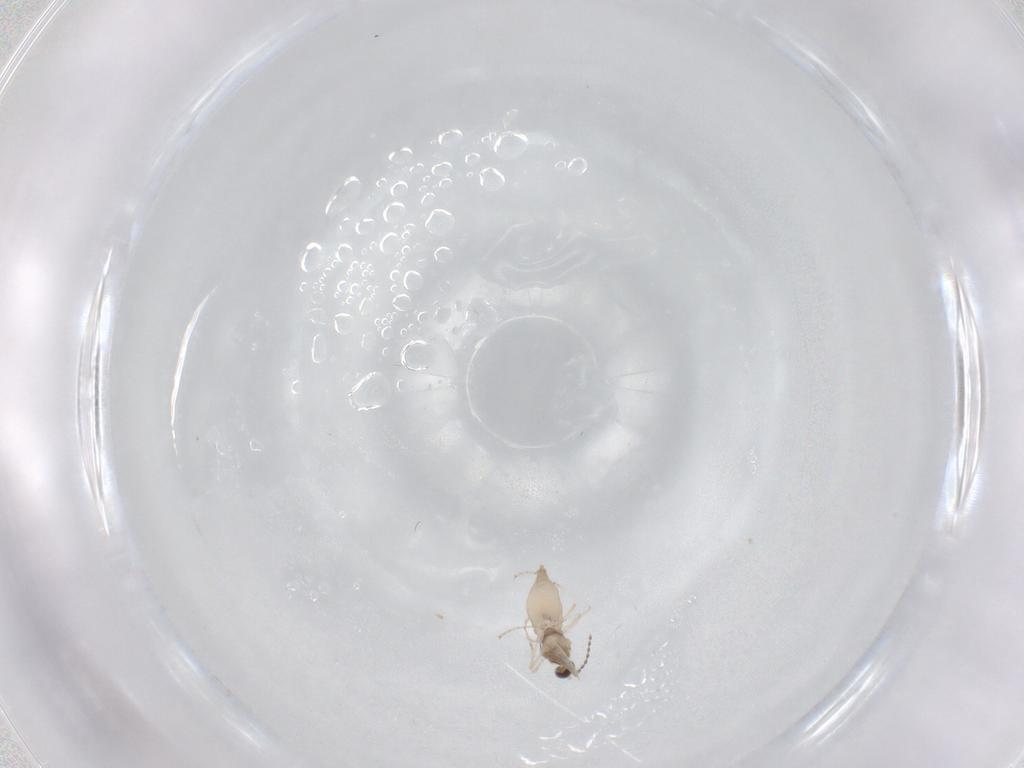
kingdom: Animalia
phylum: Arthropoda
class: Insecta
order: Diptera
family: Cecidomyiidae
